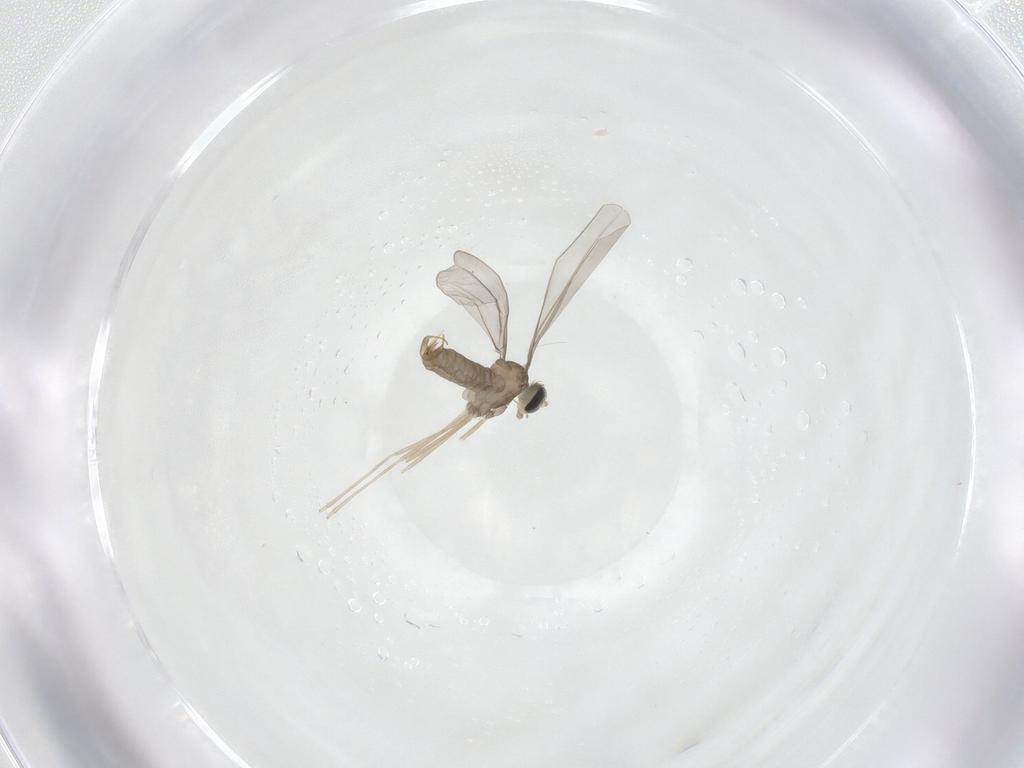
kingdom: Animalia
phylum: Arthropoda
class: Insecta
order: Diptera
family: Cecidomyiidae
